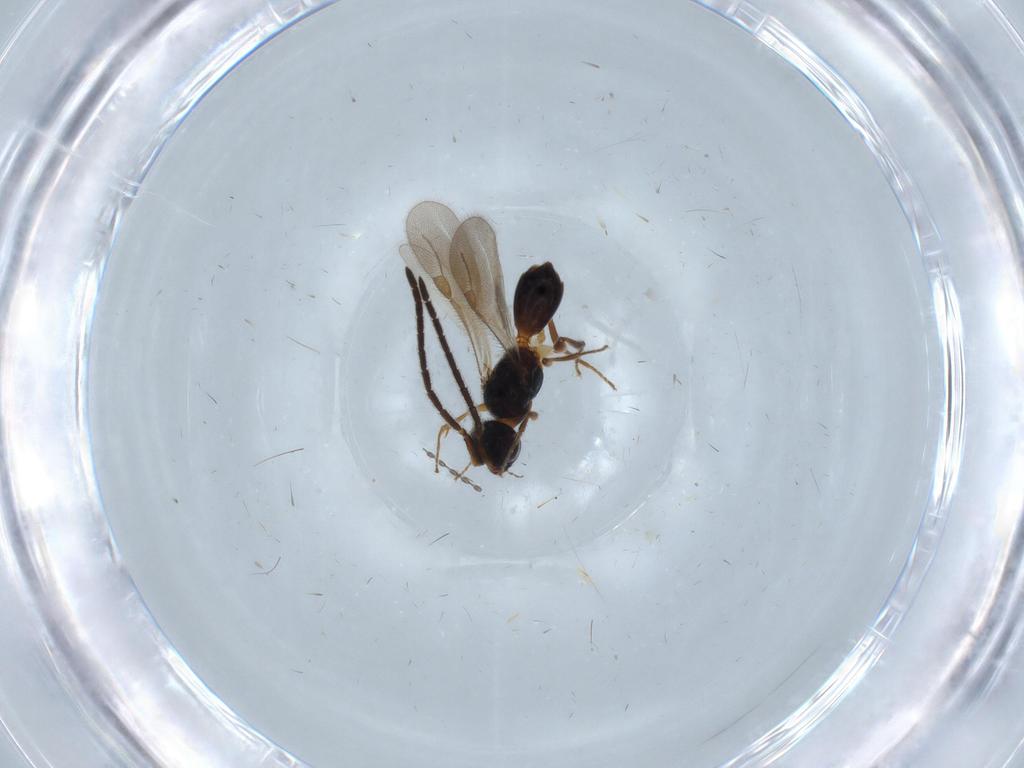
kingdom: Animalia
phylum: Arthropoda
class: Insecta
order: Hymenoptera
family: Megaspilidae
